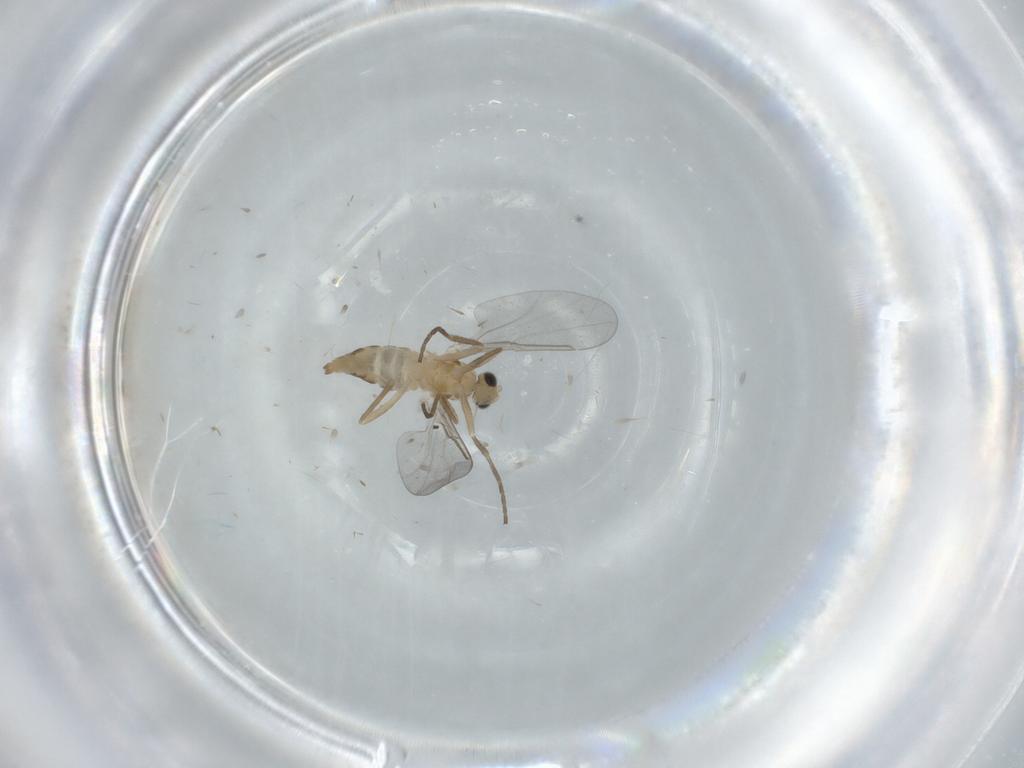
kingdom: Animalia
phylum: Arthropoda
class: Insecta
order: Diptera
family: Cecidomyiidae
